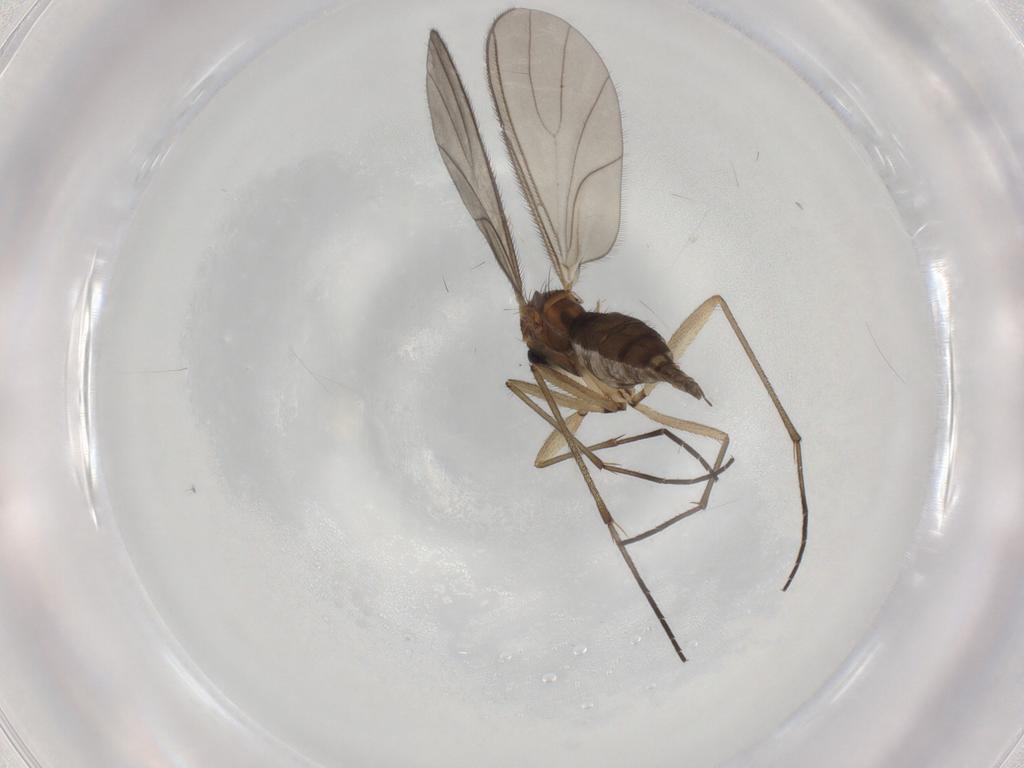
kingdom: Animalia
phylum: Arthropoda
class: Insecta
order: Diptera
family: Sciaridae
